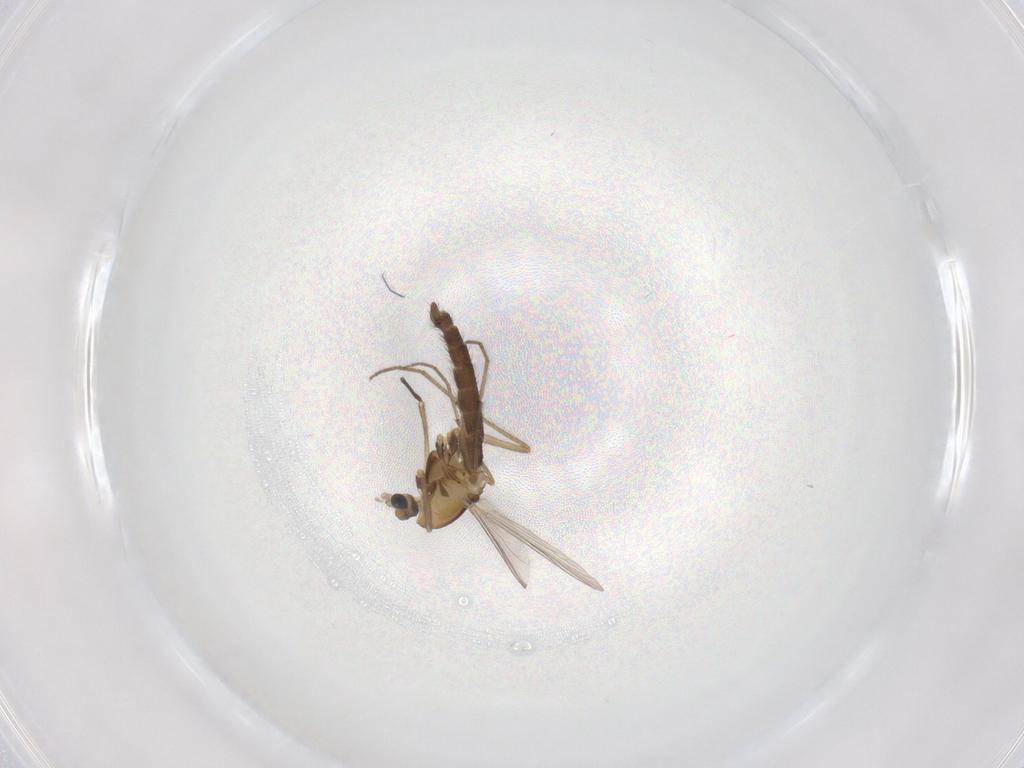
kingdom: Animalia
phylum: Arthropoda
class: Insecta
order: Diptera
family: Chironomidae
